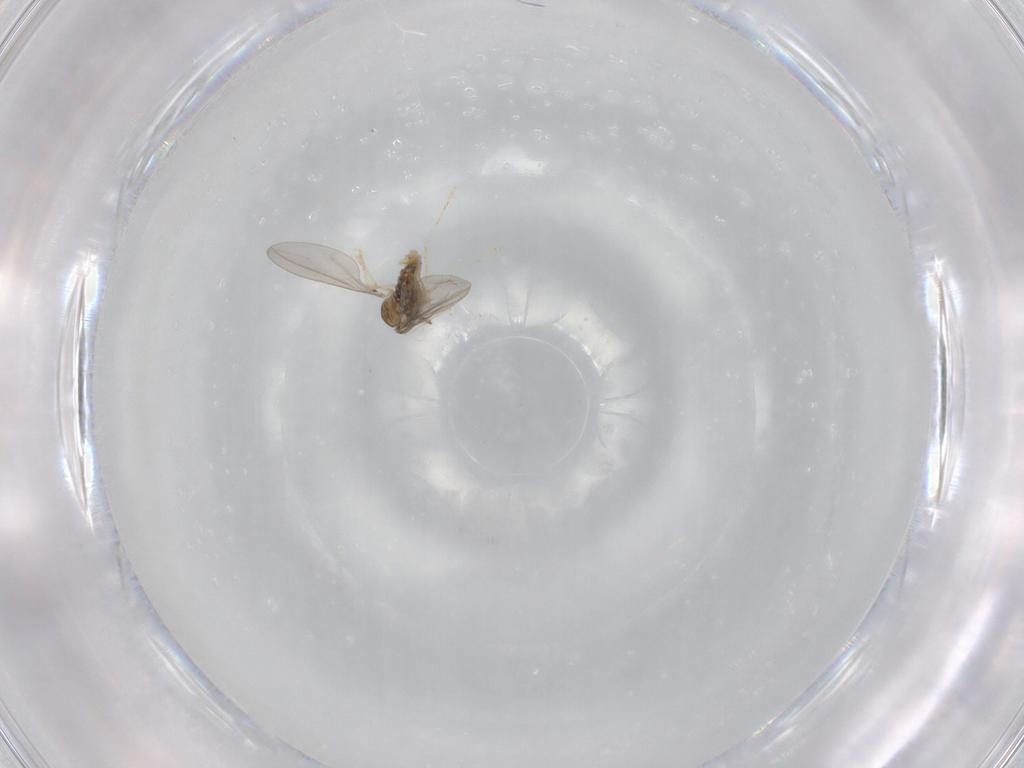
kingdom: Animalia
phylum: Arthropoda
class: Insecta
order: Diptera
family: Cecidomyiidae
